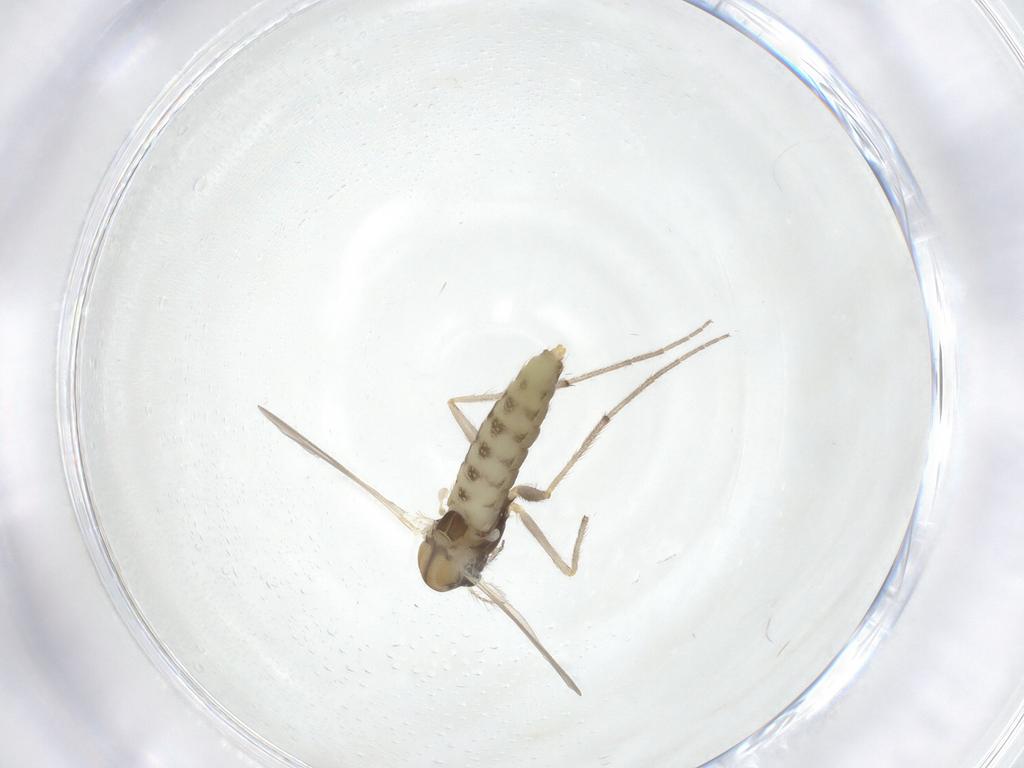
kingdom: Animalia
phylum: Arthropoda
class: Insecta
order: Diptera
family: Chironomidae
